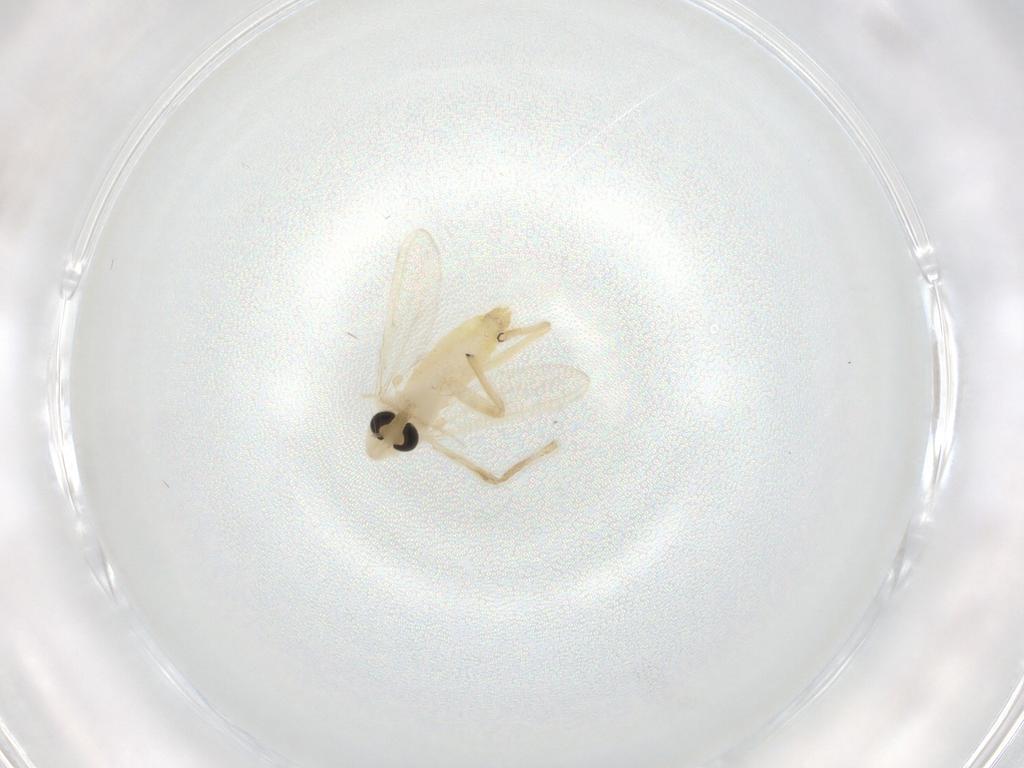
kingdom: Animalia
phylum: Arthropoda
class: Insecta
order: Diptera
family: Chironomidae
